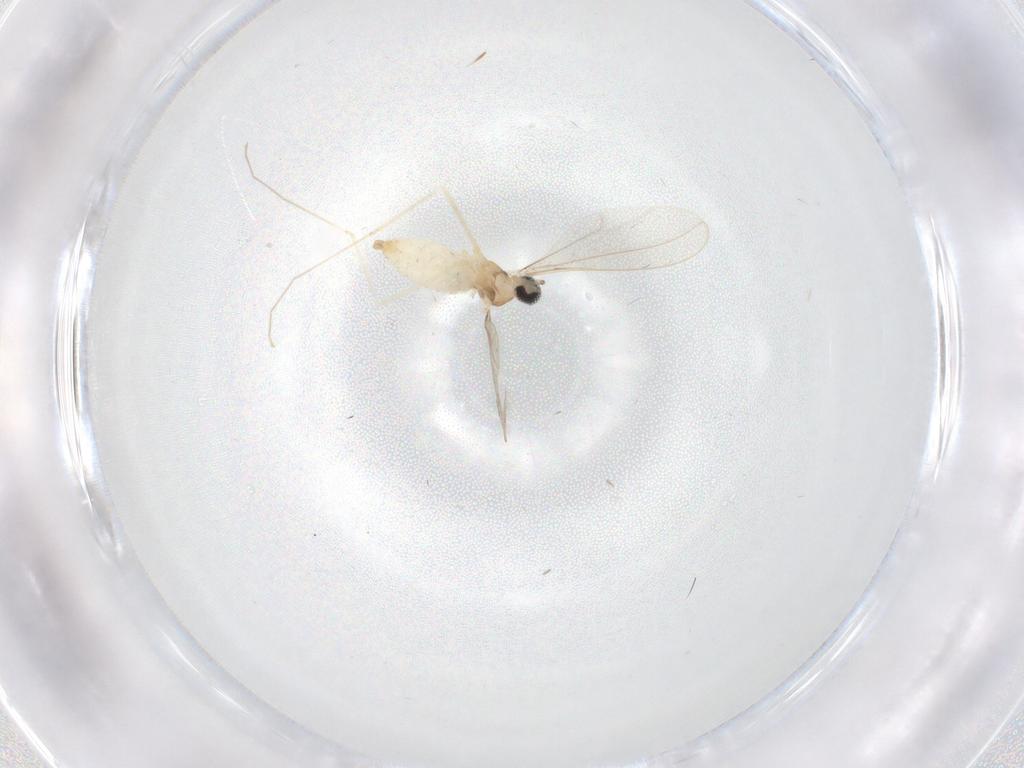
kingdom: Animalia
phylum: Arthropoda
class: Insecta
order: Diptera
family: Cecidomyiidae
